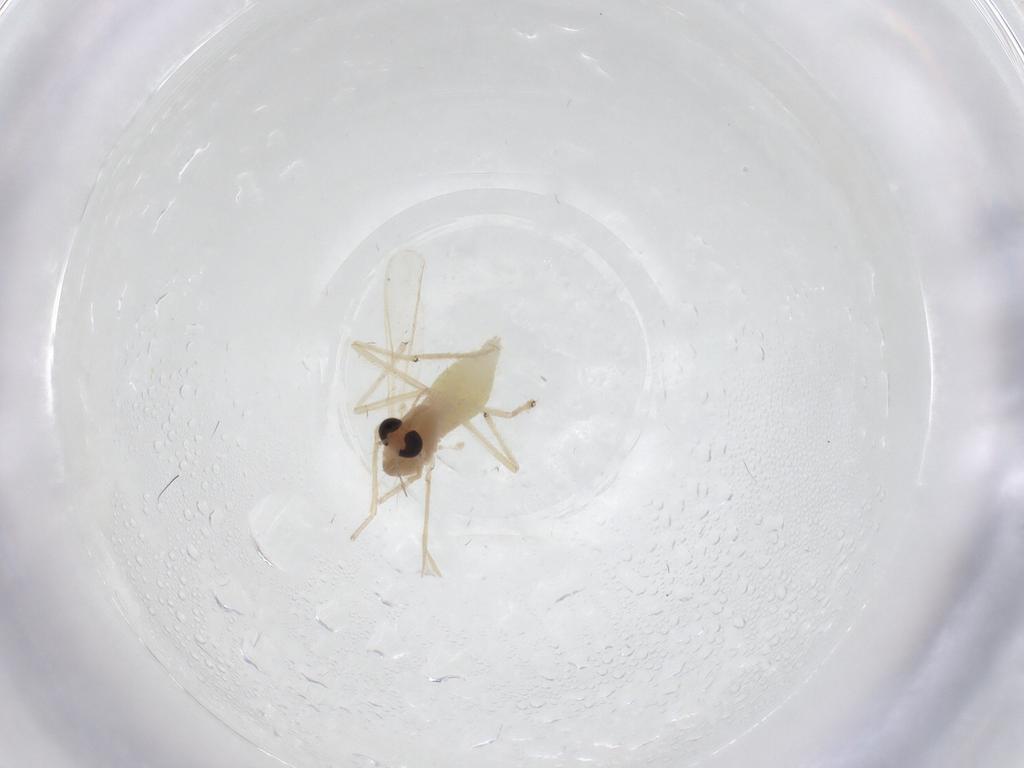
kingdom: Animalia
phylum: Arthropoda
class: Insecta
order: Diptera
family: Chironomidae
